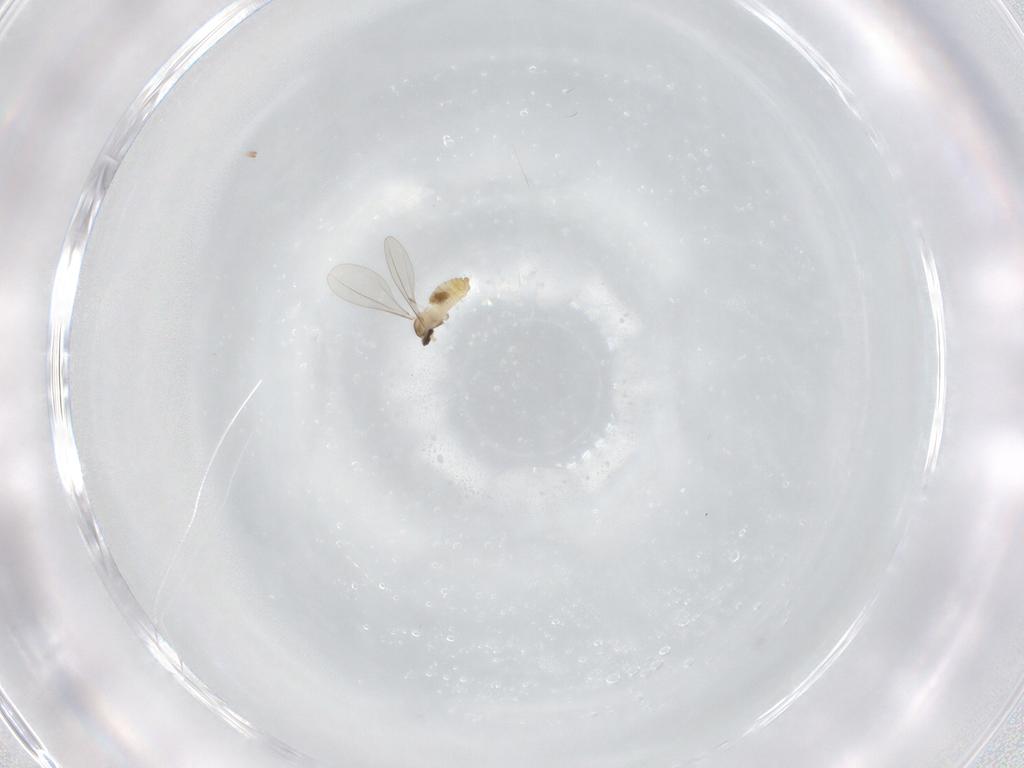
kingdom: Animalia
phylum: Arthropoda
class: Insecta
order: Diptera
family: Cecidomyiidae
